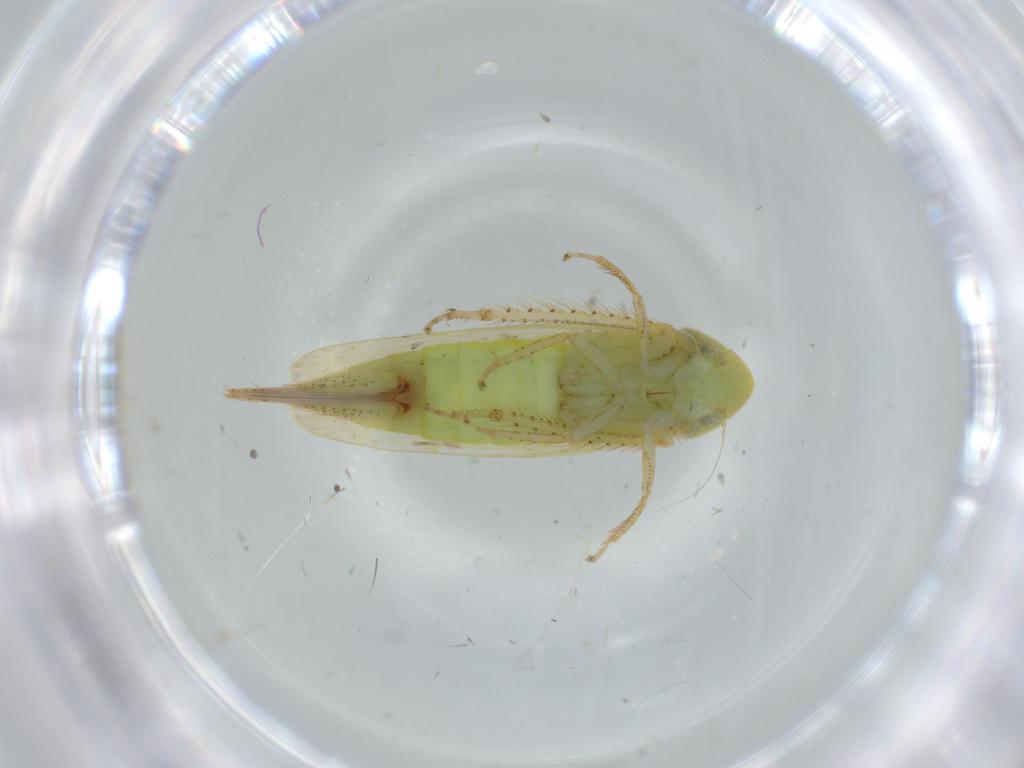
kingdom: Animalia
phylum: Arthropoda
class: Insecta
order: Hemiptera
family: Cicadellidae
